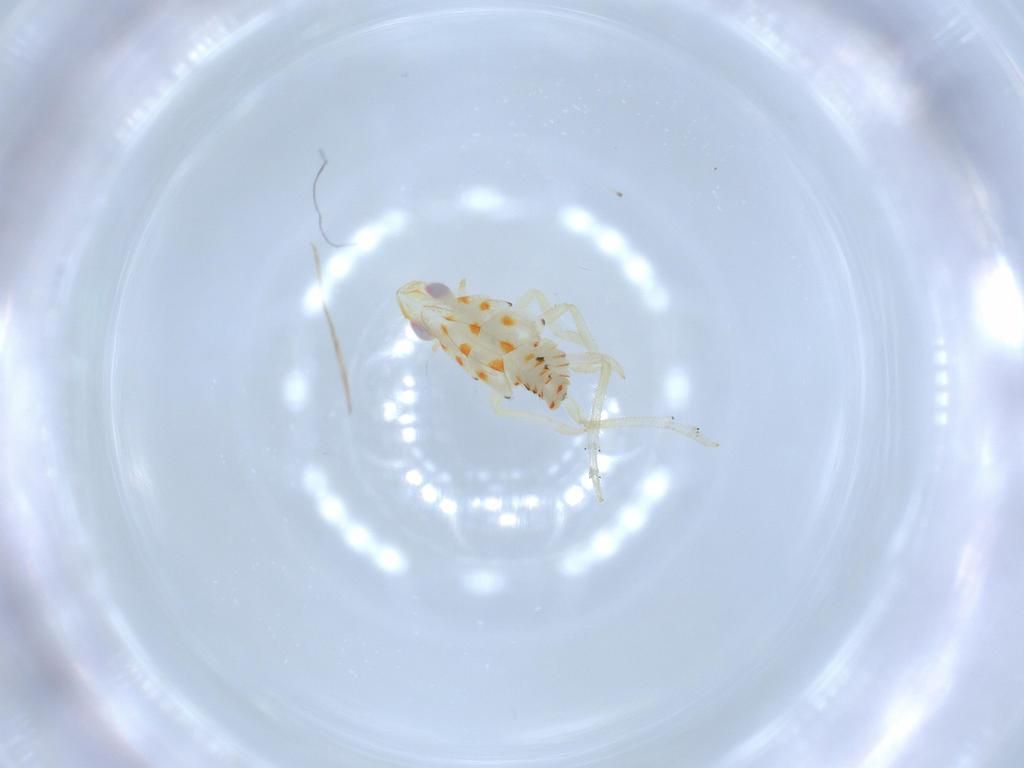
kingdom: Animalia
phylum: Arthropoda
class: Insecta
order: Hemiptera
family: Tropiduchidae
